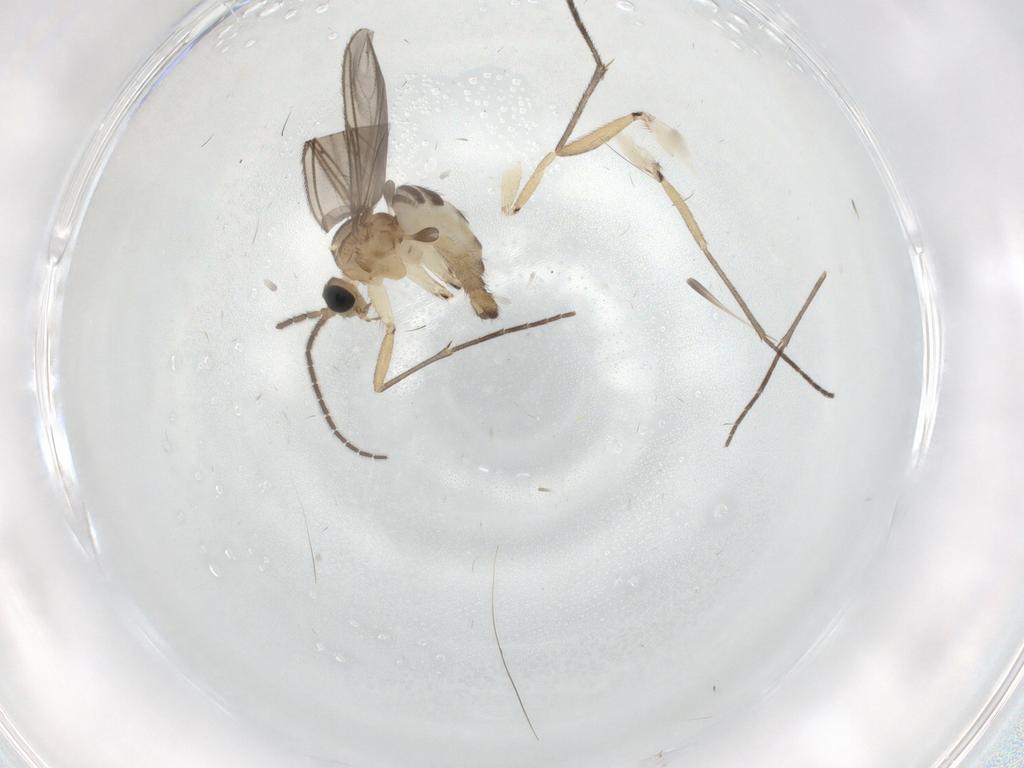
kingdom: Animalia
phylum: Arthropoda
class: Insecta
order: Diptera
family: Sciaridae
